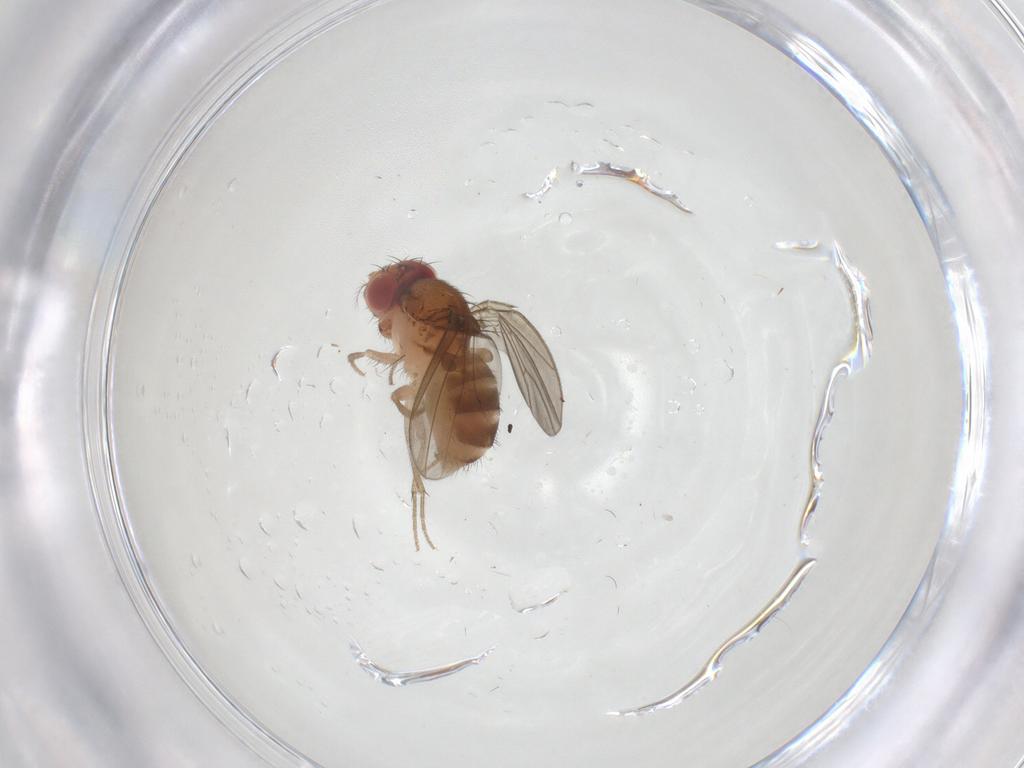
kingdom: Animalia
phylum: Arthropoda
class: Insecta
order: Diptera
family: Drosophilidae
